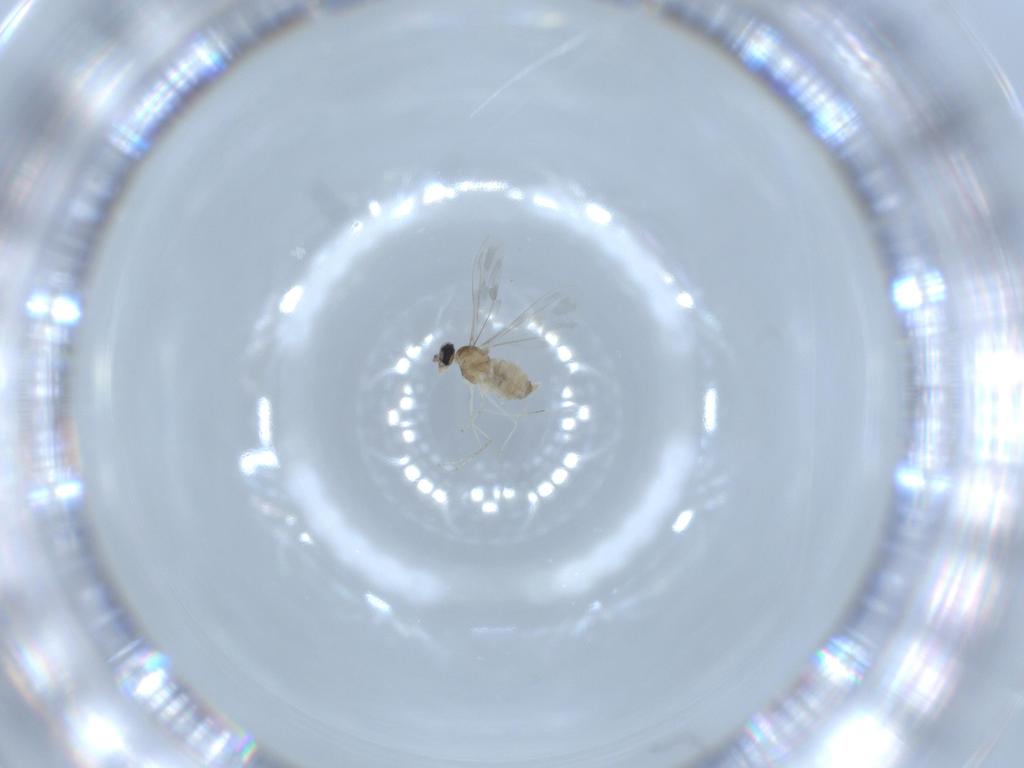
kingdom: Animalia
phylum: Arthropoda
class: Insecta
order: Diptera
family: Cecidomyiidae
